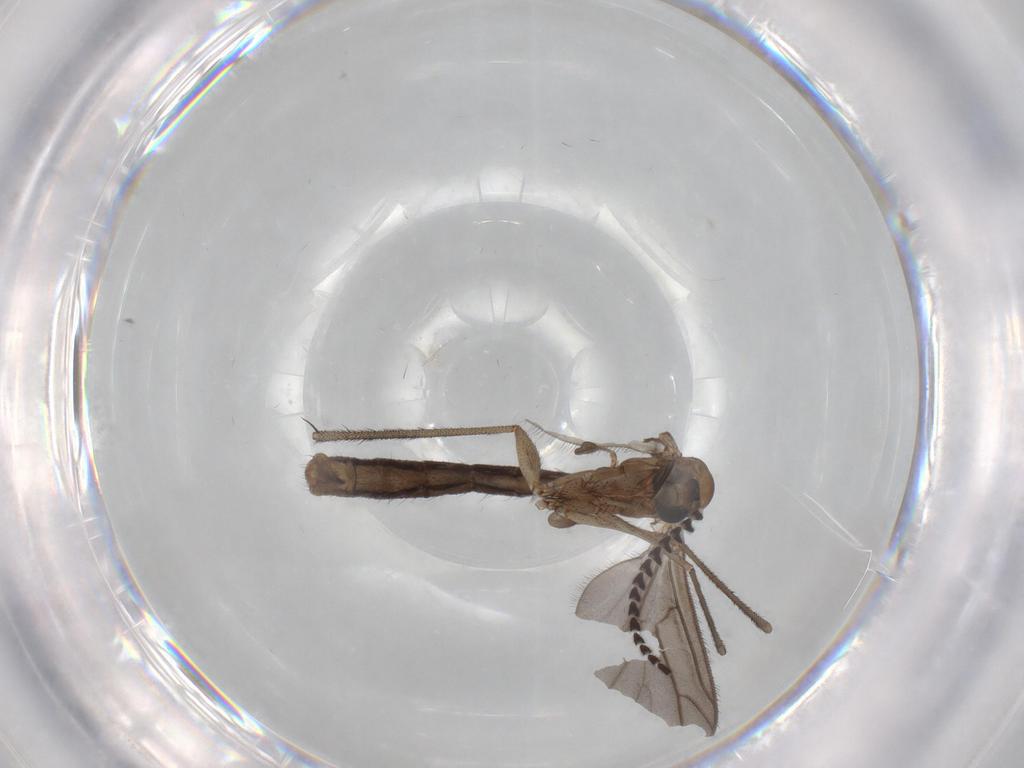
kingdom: Animalia
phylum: Arthropoda
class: Insecta
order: Diptera
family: Sciaridae
